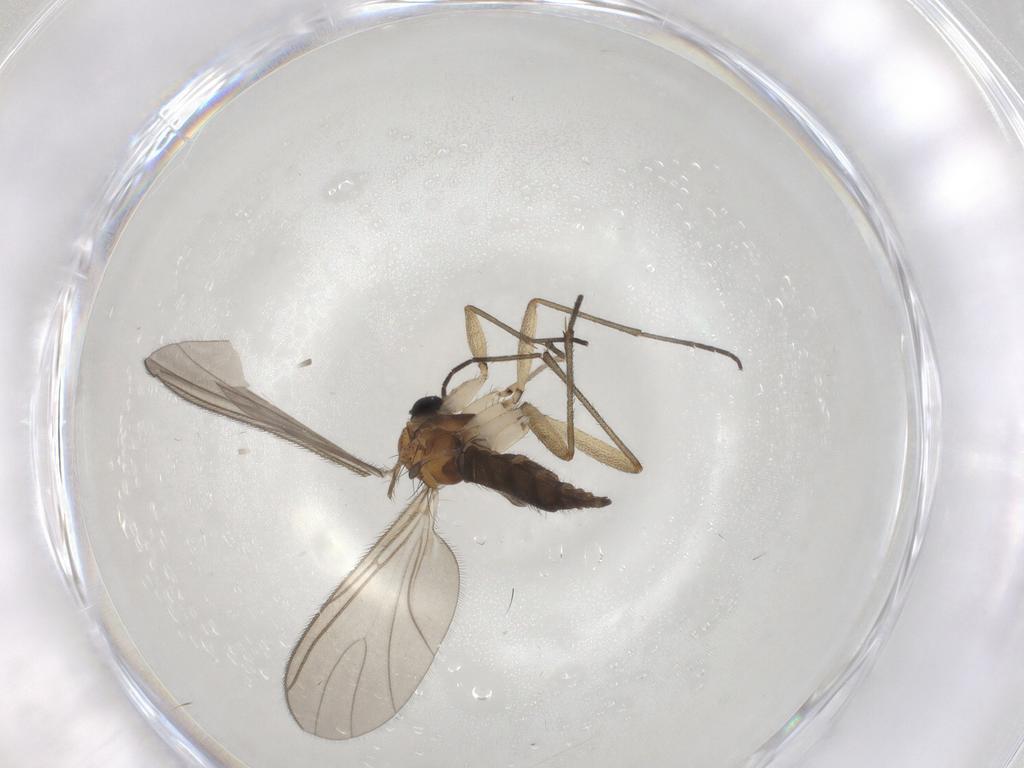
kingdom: Animalia
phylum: Arthropoda
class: Insecta
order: Diptera
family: Sciaridae
